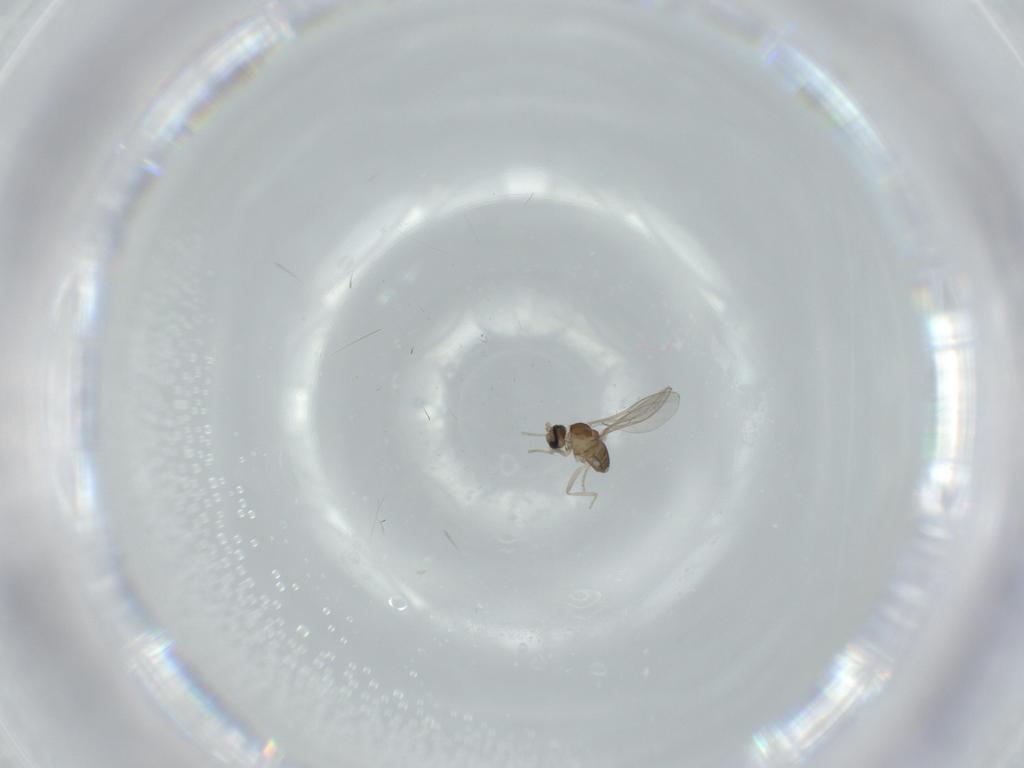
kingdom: Animalia
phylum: Arthropoda
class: Insecta
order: Diptera
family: Cecidomyiidae
